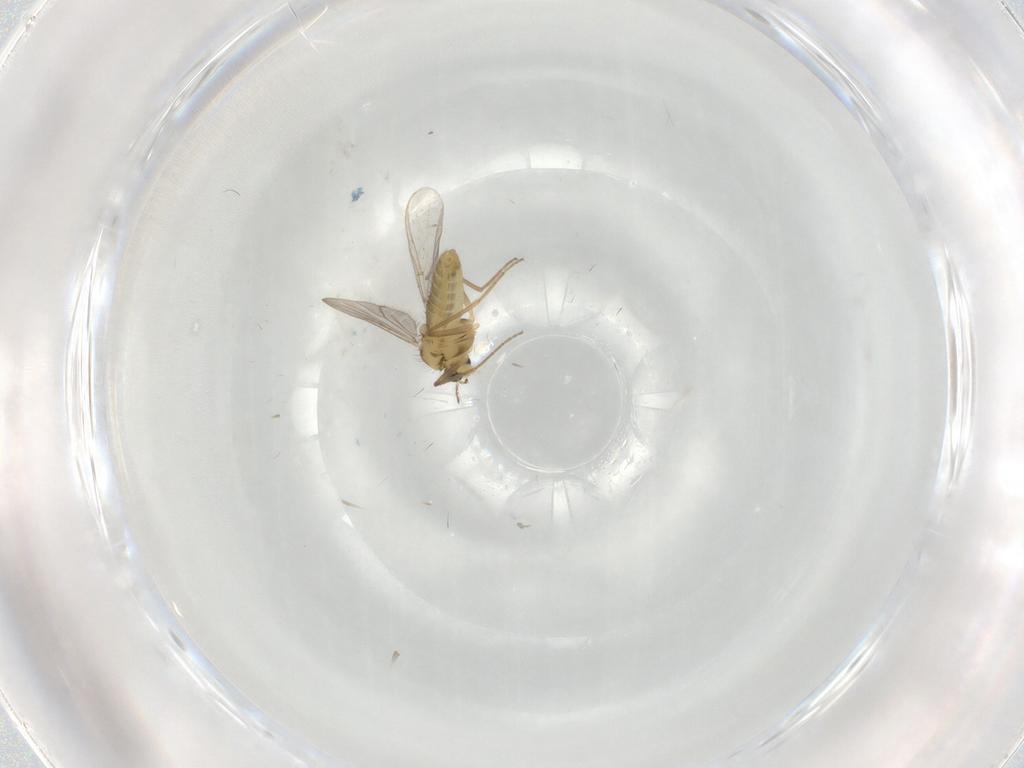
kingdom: Animalia
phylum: Arthropoda
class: Insecta
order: Diptera
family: Chironomidae
